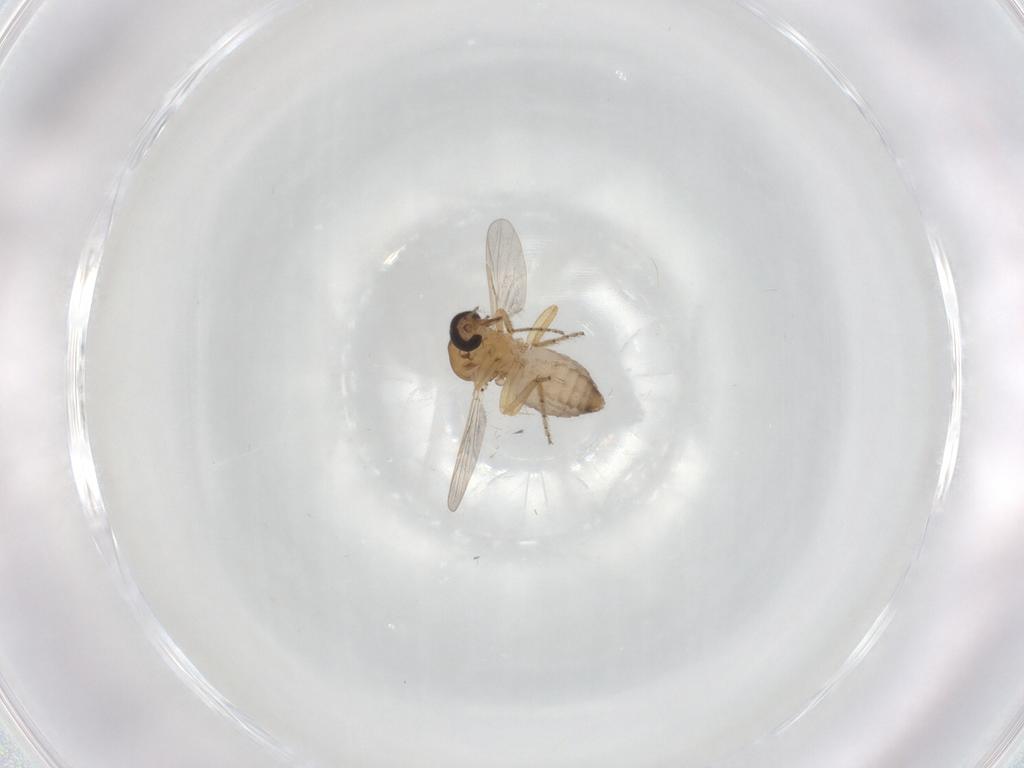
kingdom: Animalia
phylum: Arthropoda
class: Insecta
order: Diptera
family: Ceratopogonidae
